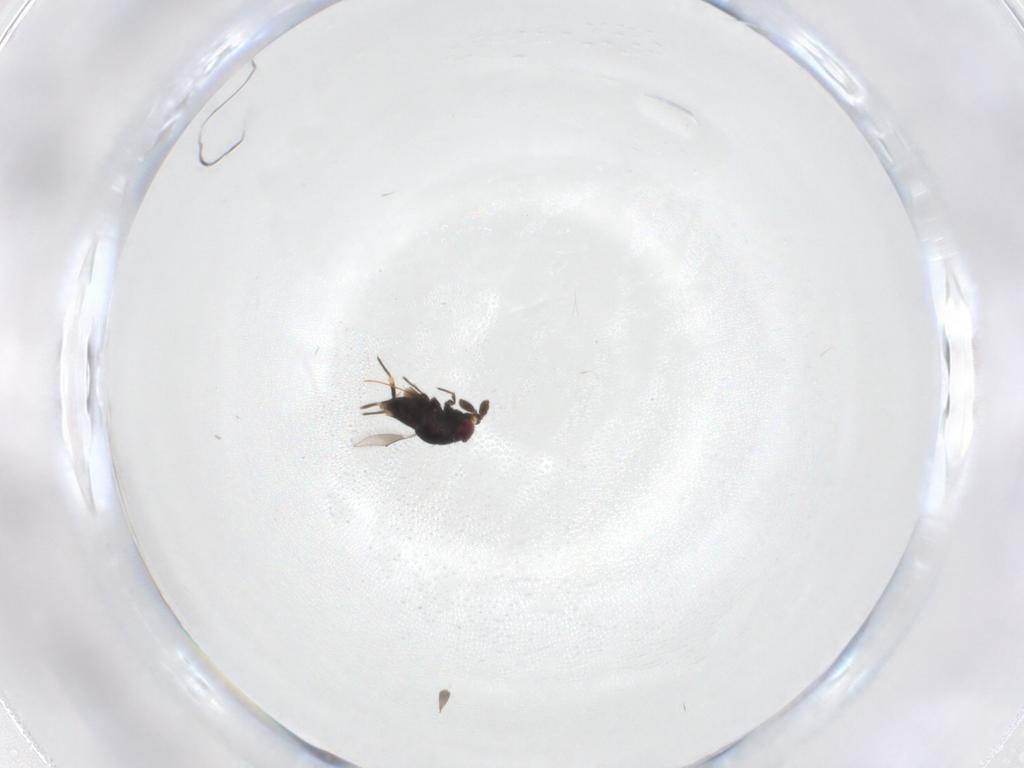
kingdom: Animalia
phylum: Arthropoda
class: Insecta
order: Hymenoptera
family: Eulophidae
